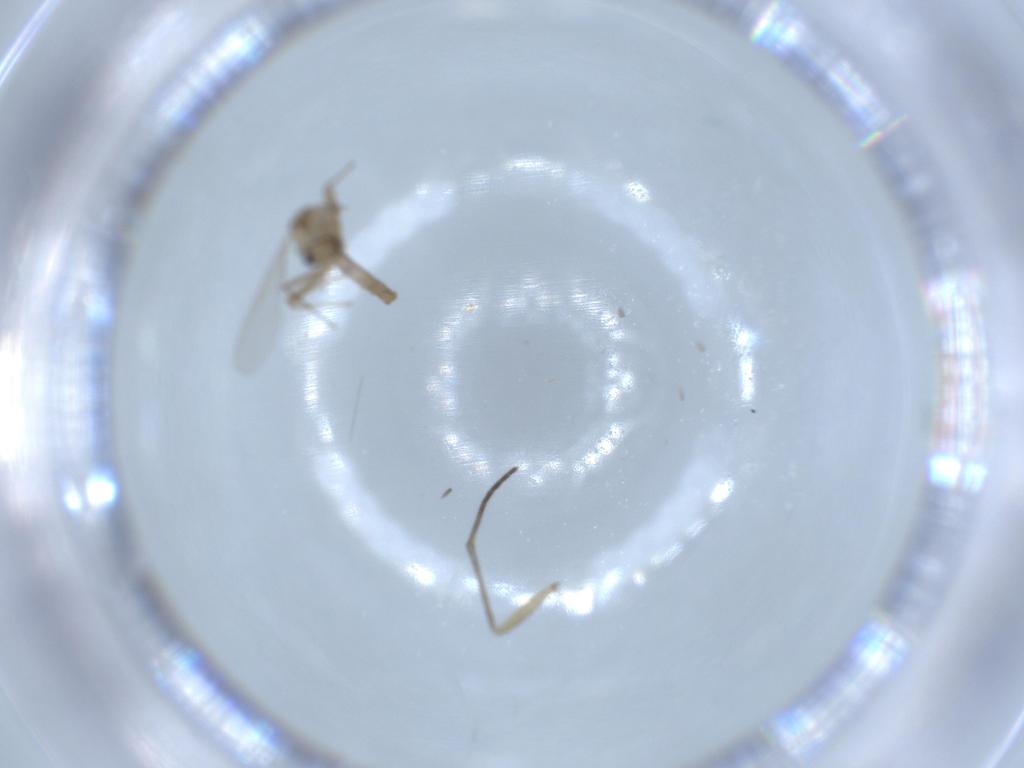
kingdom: Animalia
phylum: Arthropoda
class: Insecta
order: Diptera
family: Chironomidae
